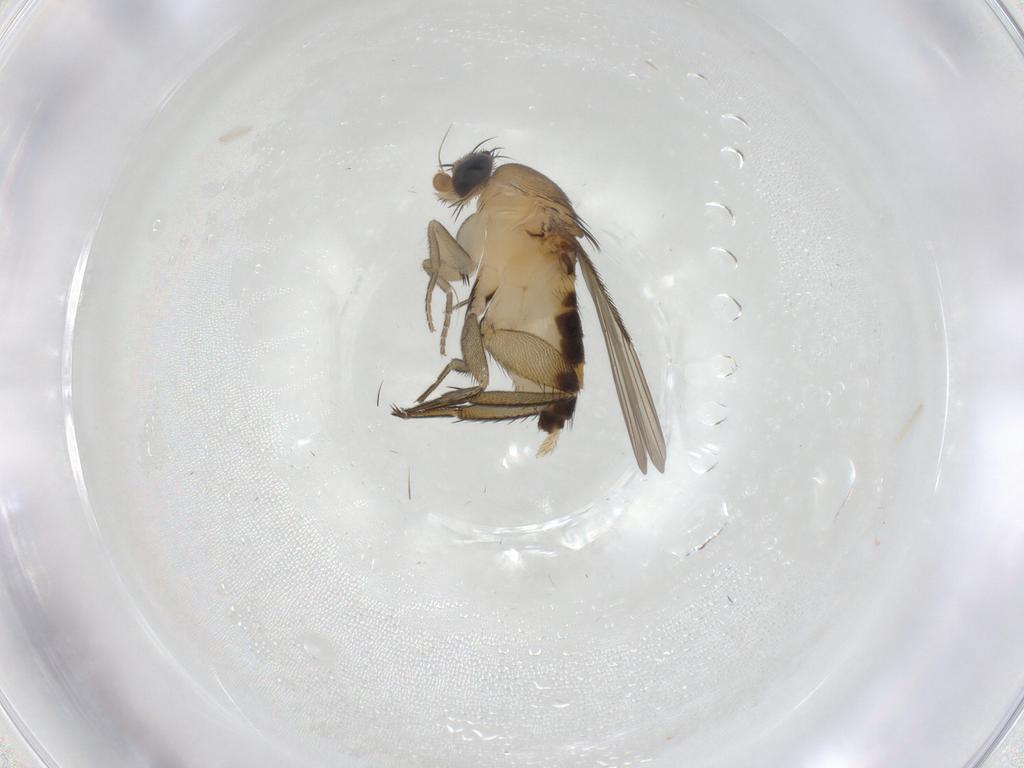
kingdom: Animalia
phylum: Arthropoda
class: Insecta
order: Diptera
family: Phoridae
